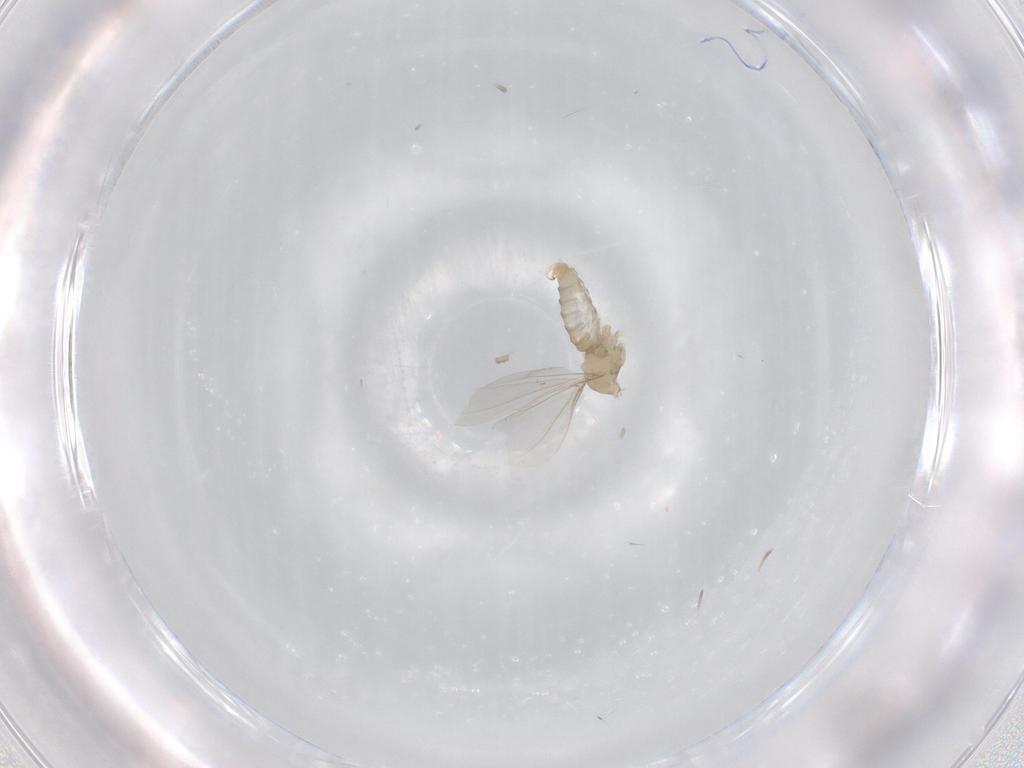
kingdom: Animalia
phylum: Arthropoda
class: Insecta
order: Diptera
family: Cecidomyiidae
